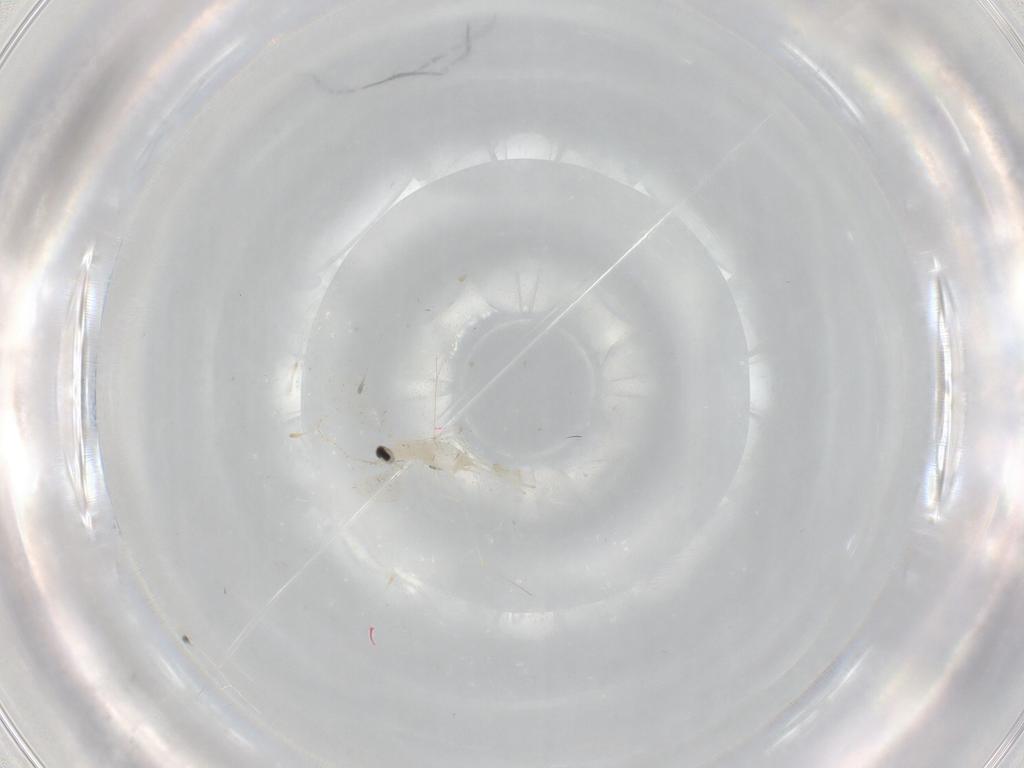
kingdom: Animalia
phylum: Arthropoda
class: Insecta
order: Diptera
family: Cecidomyiidae
